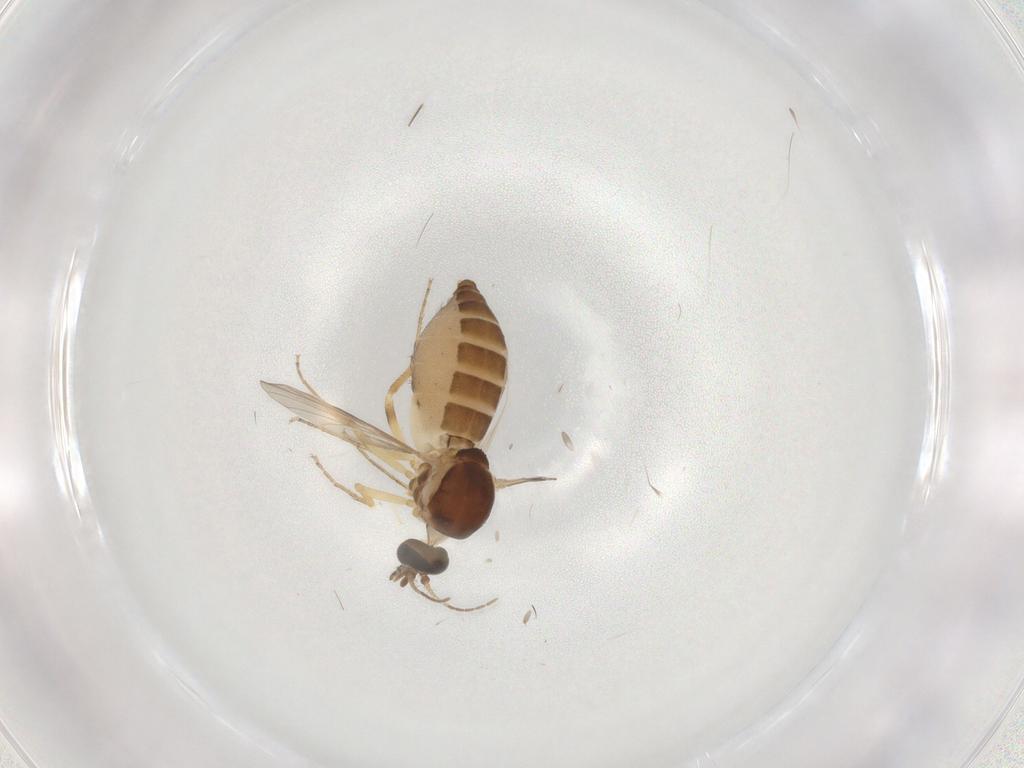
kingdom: Animalia
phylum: Arthropoda
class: Insecta
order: Diptera
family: Ceratopogonidae
